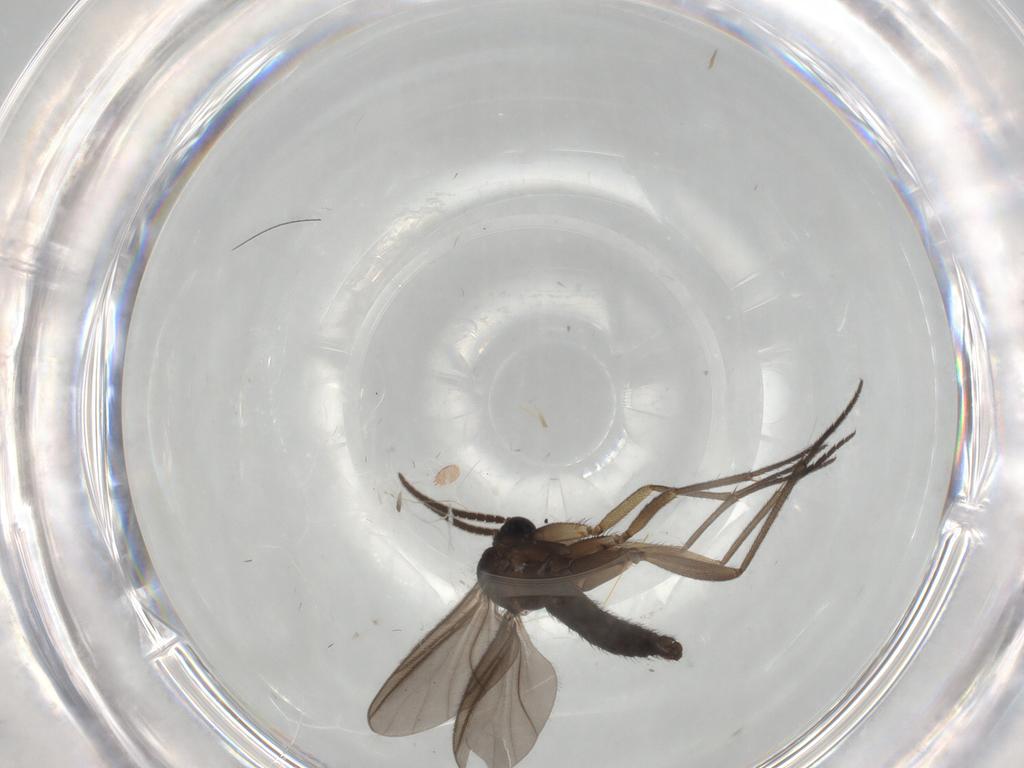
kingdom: Animalia
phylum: Arthropoda
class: Insecta
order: Diptera
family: Sciaridae
